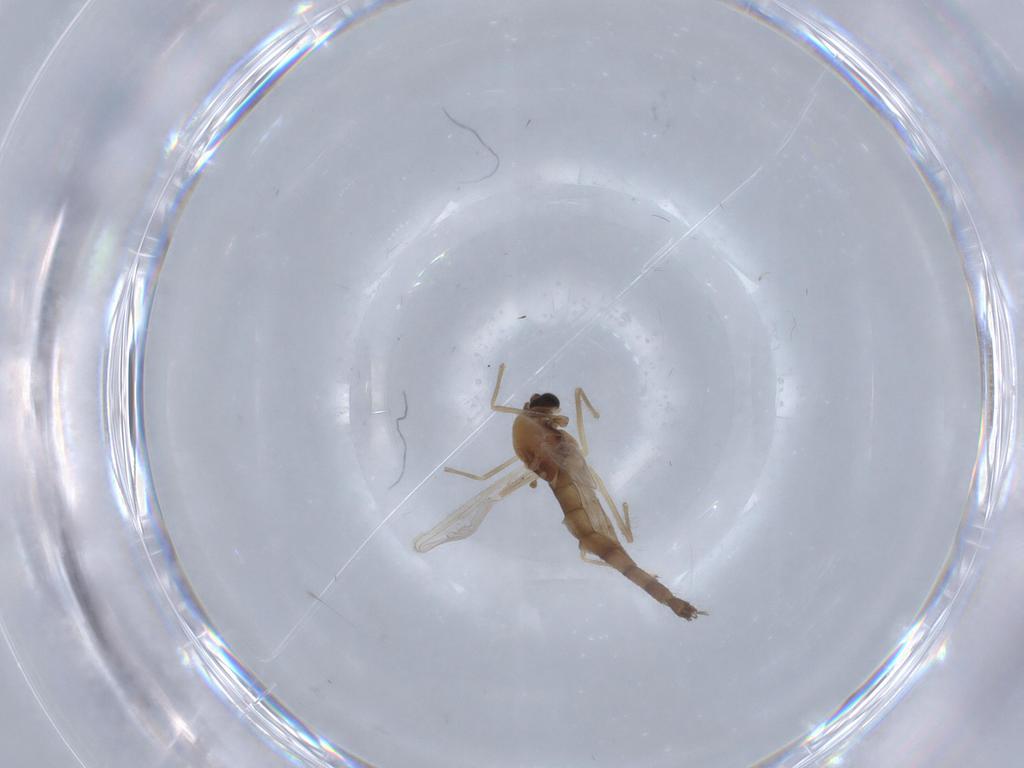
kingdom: Animalia
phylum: Arthropoda
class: Insecta
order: Diptera
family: Chironomidae
